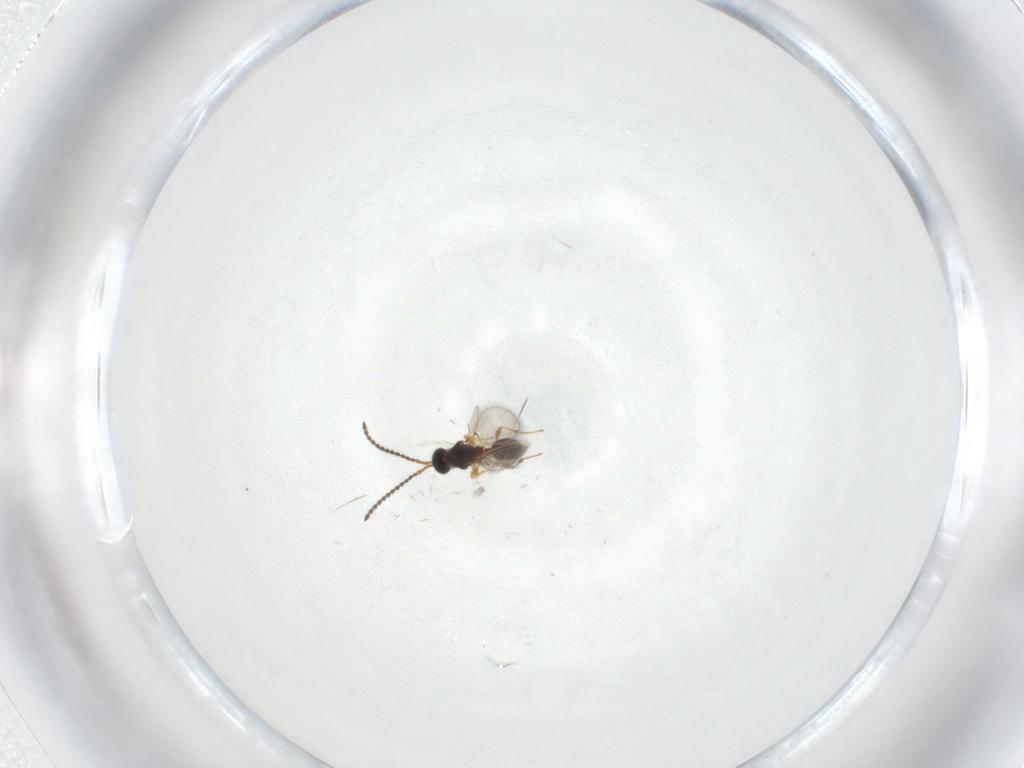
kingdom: Animalia
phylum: Arthropoda
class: Insecta
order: Hymenoptera
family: Diapriidae
